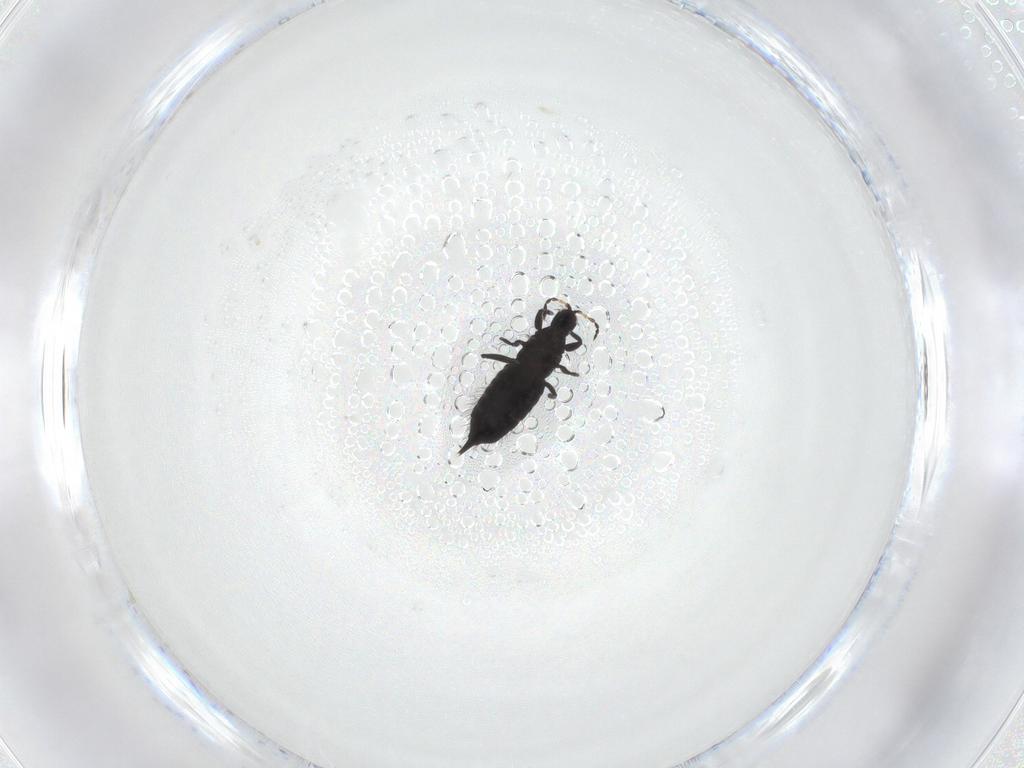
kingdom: Animalia
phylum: Arthropoda
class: Insecta
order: Thysanoptera
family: Phlaeothripidae
